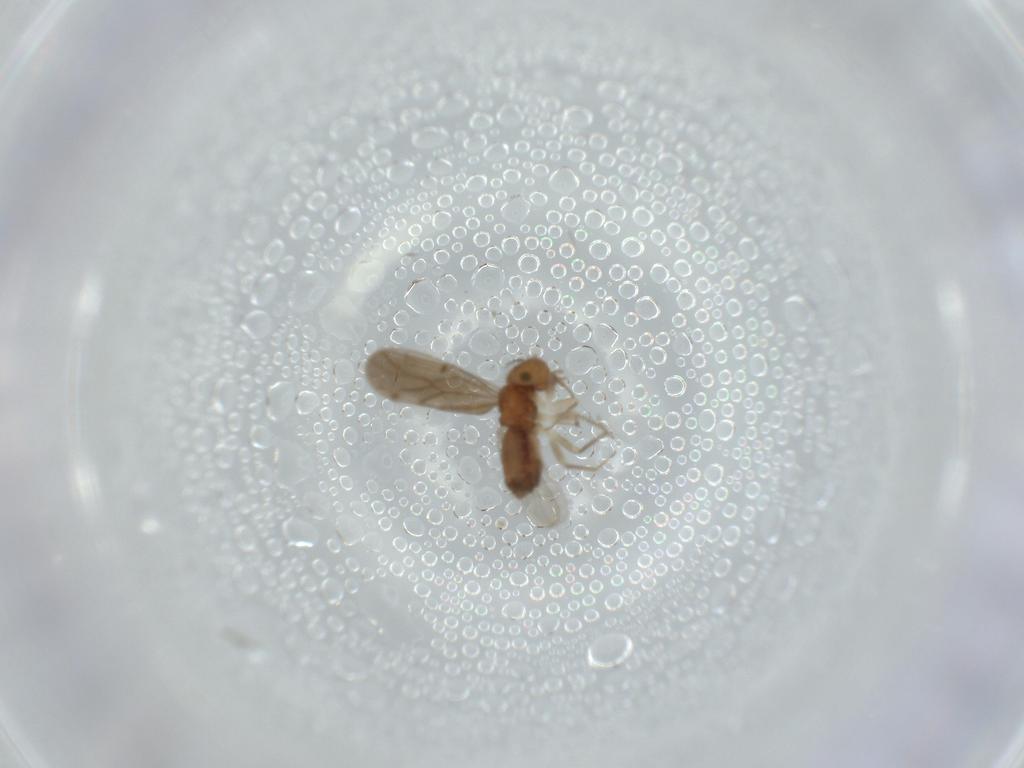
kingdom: Animalia
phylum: Arthropoda
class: Insecta
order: Psocodea
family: Ectopsocidae
